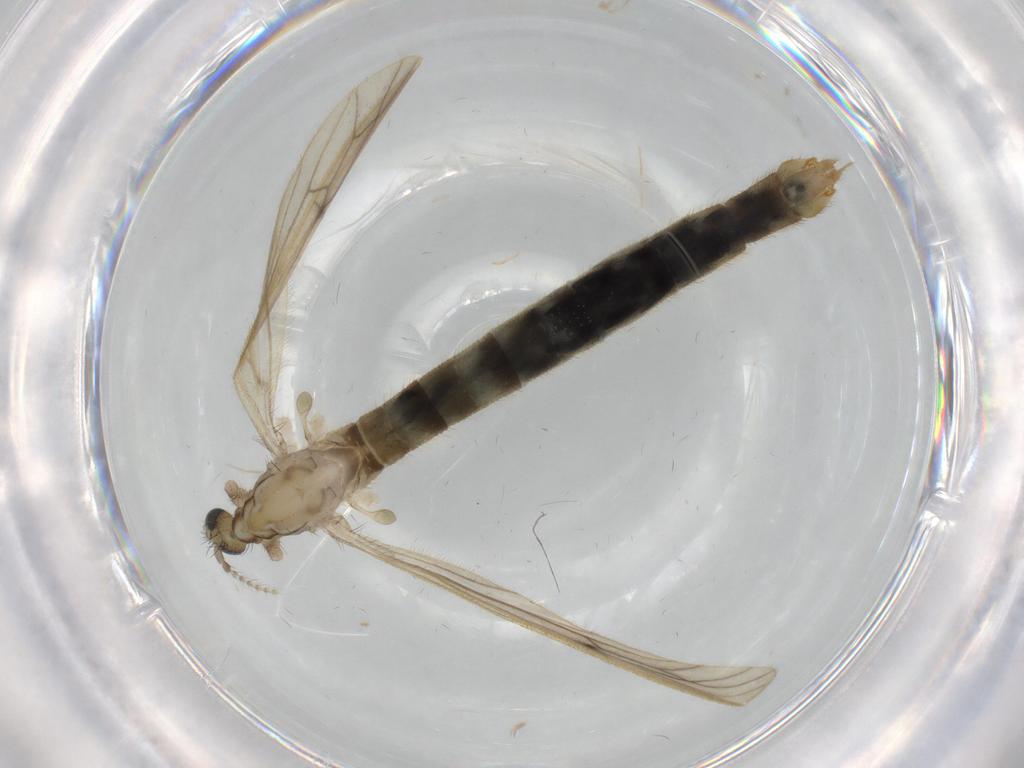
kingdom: Animalia
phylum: Arthropoda
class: Insecta
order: Diptera
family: Limoniidae
